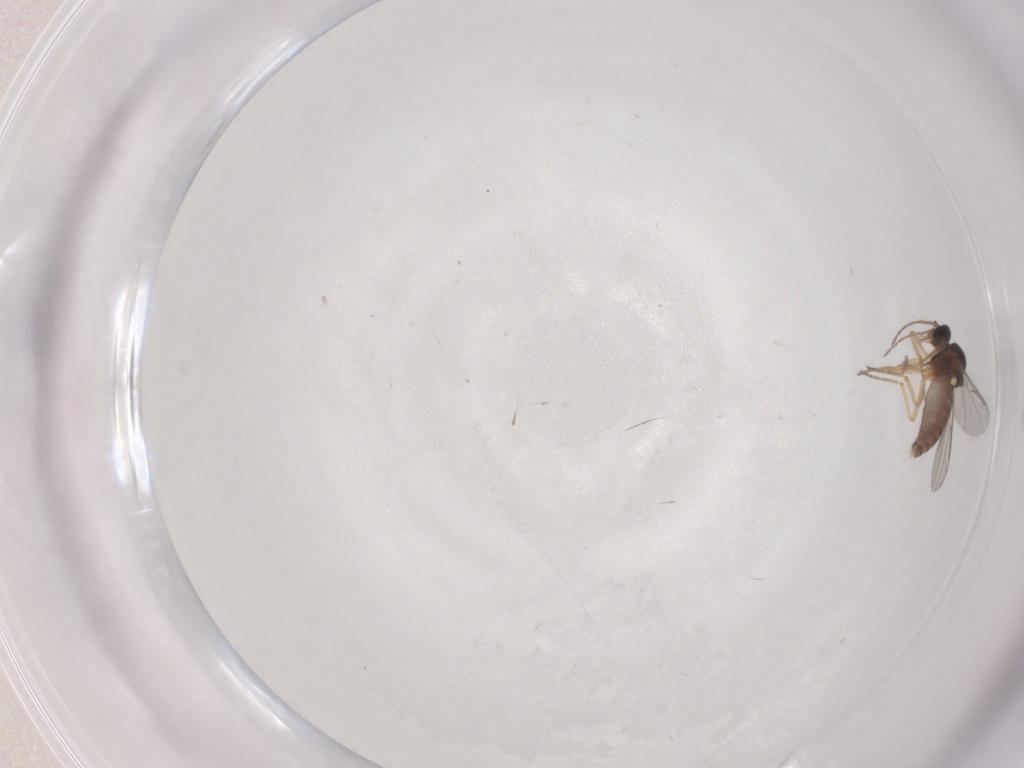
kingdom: Animalia
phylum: Arthropoda
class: Insecta
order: Diptera
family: Ceratopogonidae
